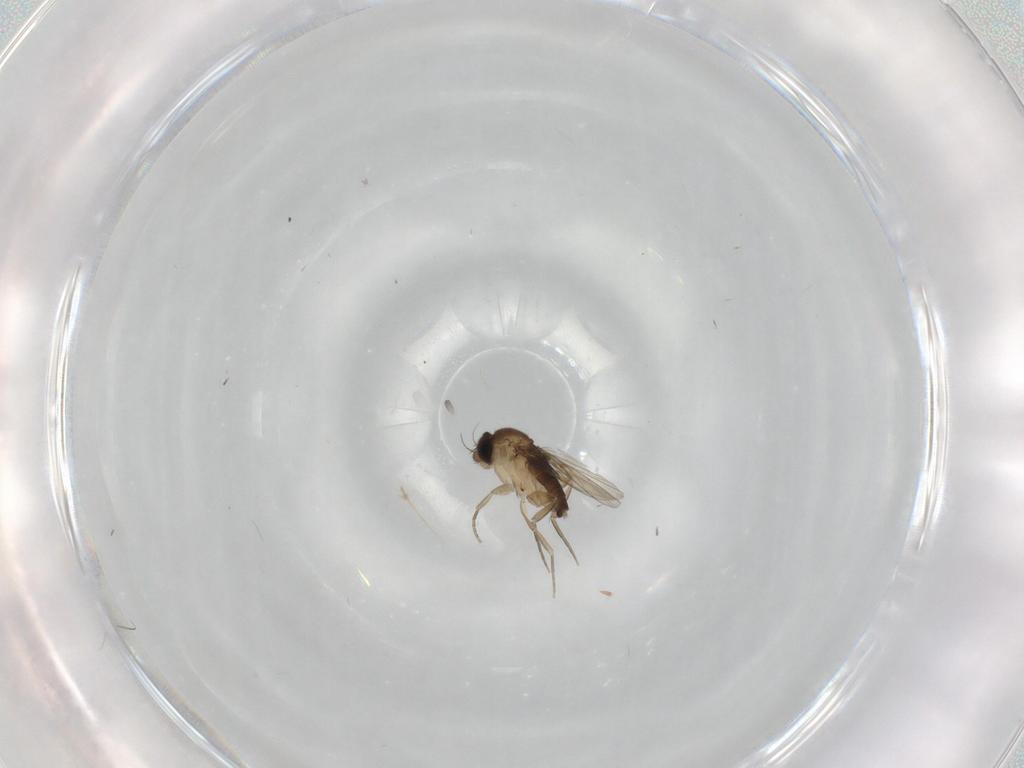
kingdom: Animalia
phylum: Arthropoda
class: Insecta
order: Diptera
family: Phoridae
